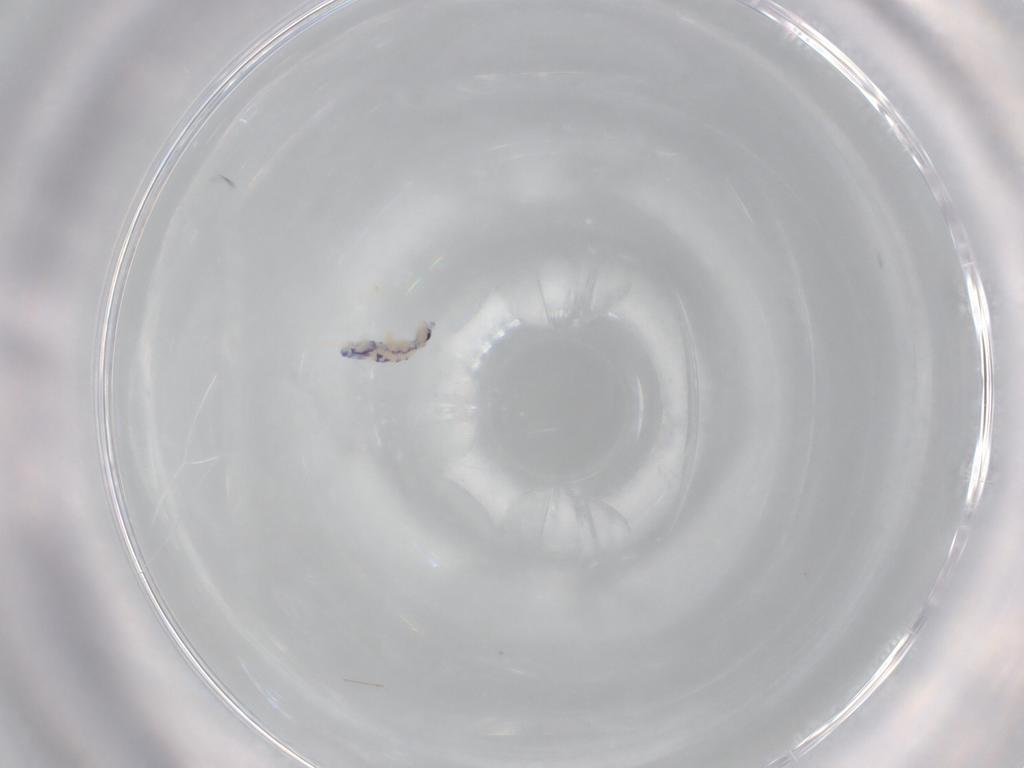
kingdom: Animalia
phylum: Arthropoda
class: Collembola
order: Entomobryomorpha
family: Entomobryidae
